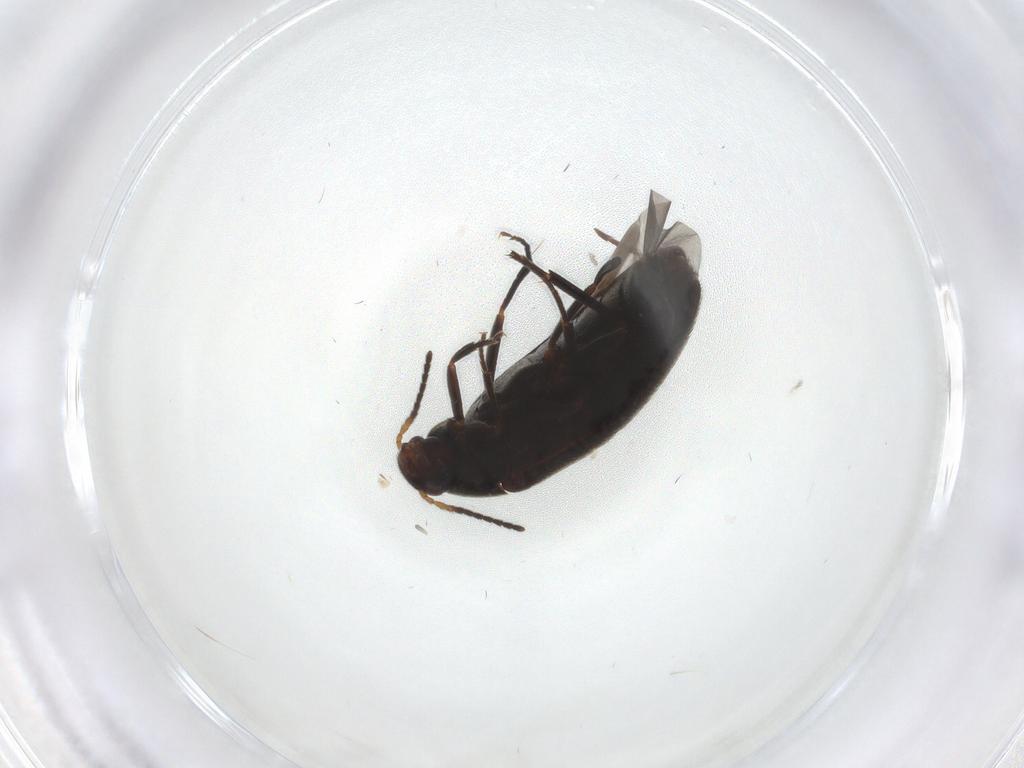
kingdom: Animalia
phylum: Arthropoda
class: Insecta
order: Coleoptera
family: Melandryidae
